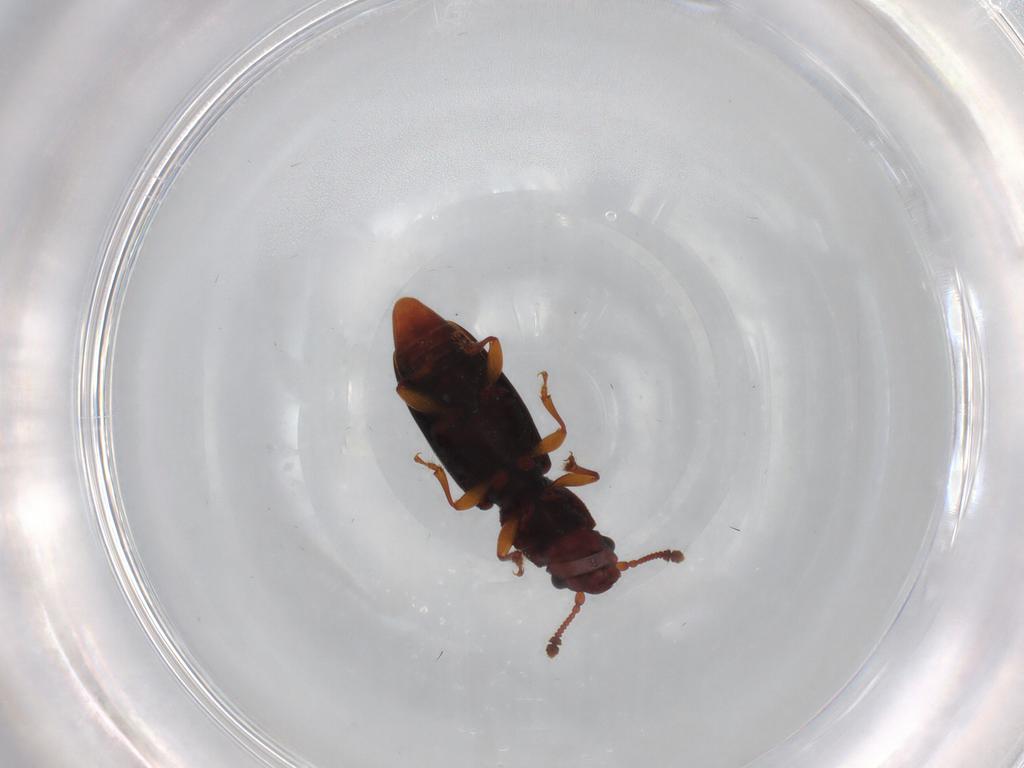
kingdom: Animalia
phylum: Arthropoda
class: Insecta
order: Coleoptera
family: Monotomidae
